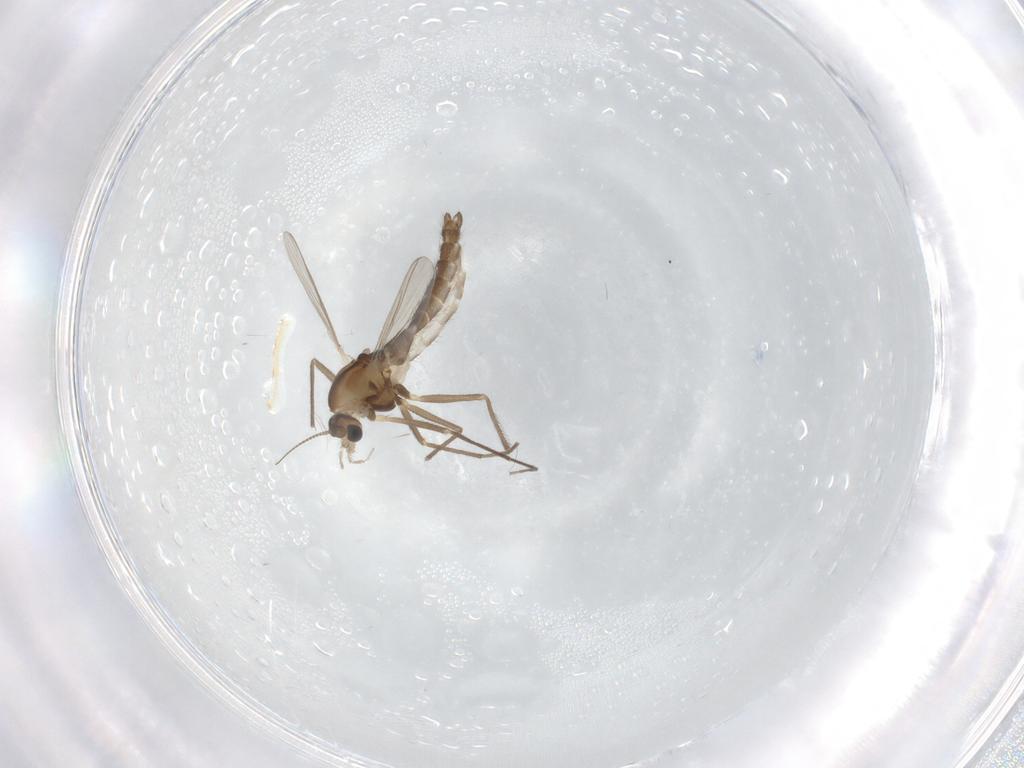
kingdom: Animalia
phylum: Arthropoda
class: Insecta
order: Diptera
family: Chironomidae
